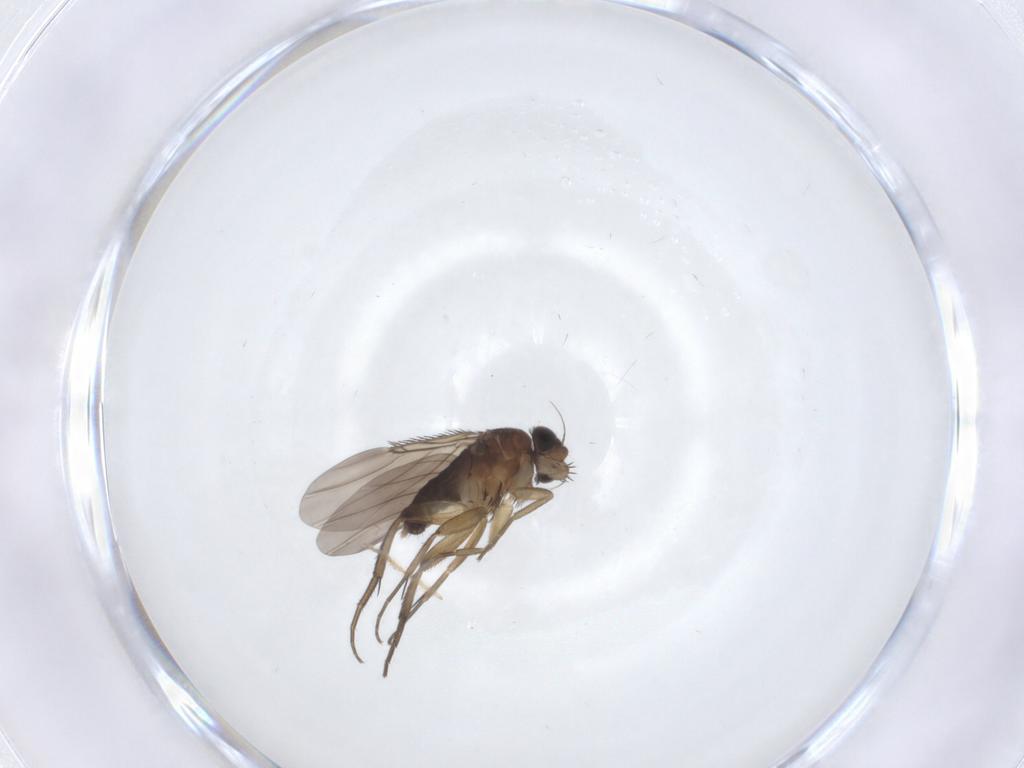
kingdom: Animalia
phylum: Arthropoda
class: Insecta
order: Diptera
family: Phoridae
